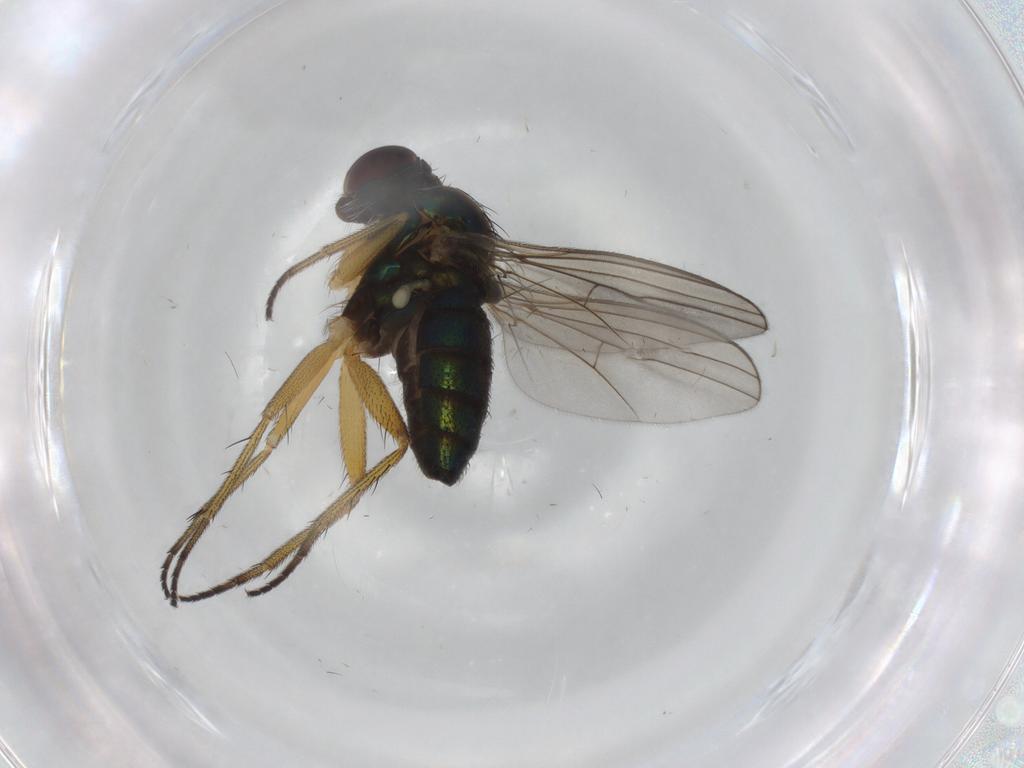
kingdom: Animalia
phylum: Arthropoda
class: Insecta
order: Diptera
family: Dolichopodidae
